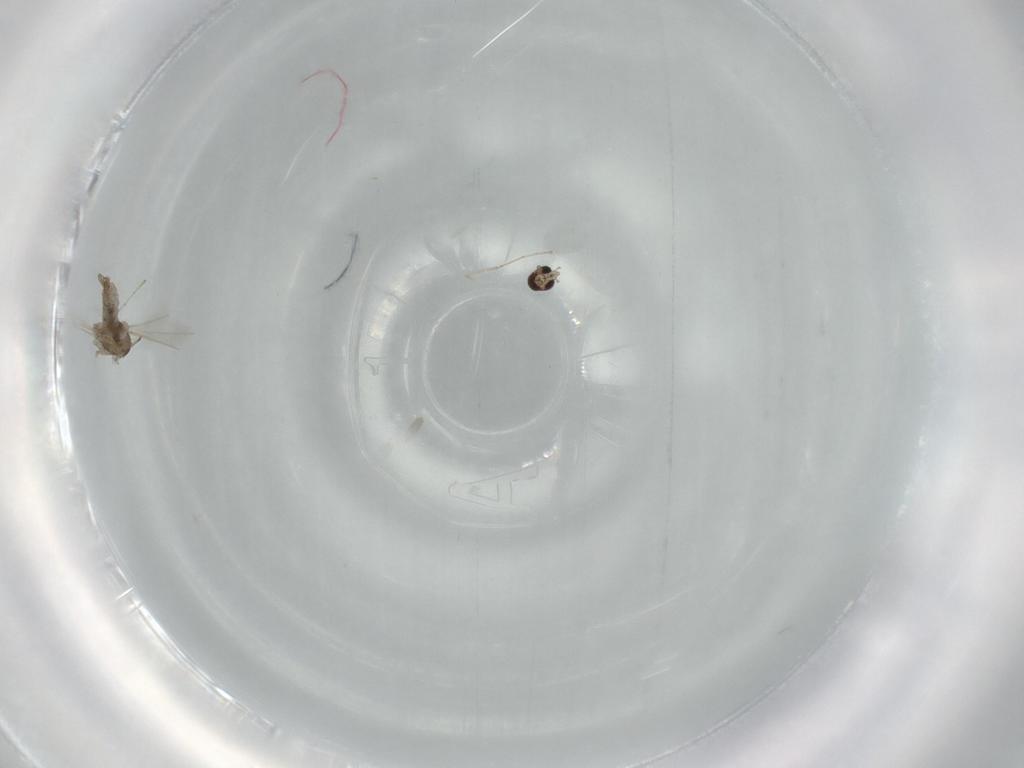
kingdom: Animalia
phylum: Arthropoda
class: Insecta
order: Diptera
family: Cecidomyiidae
